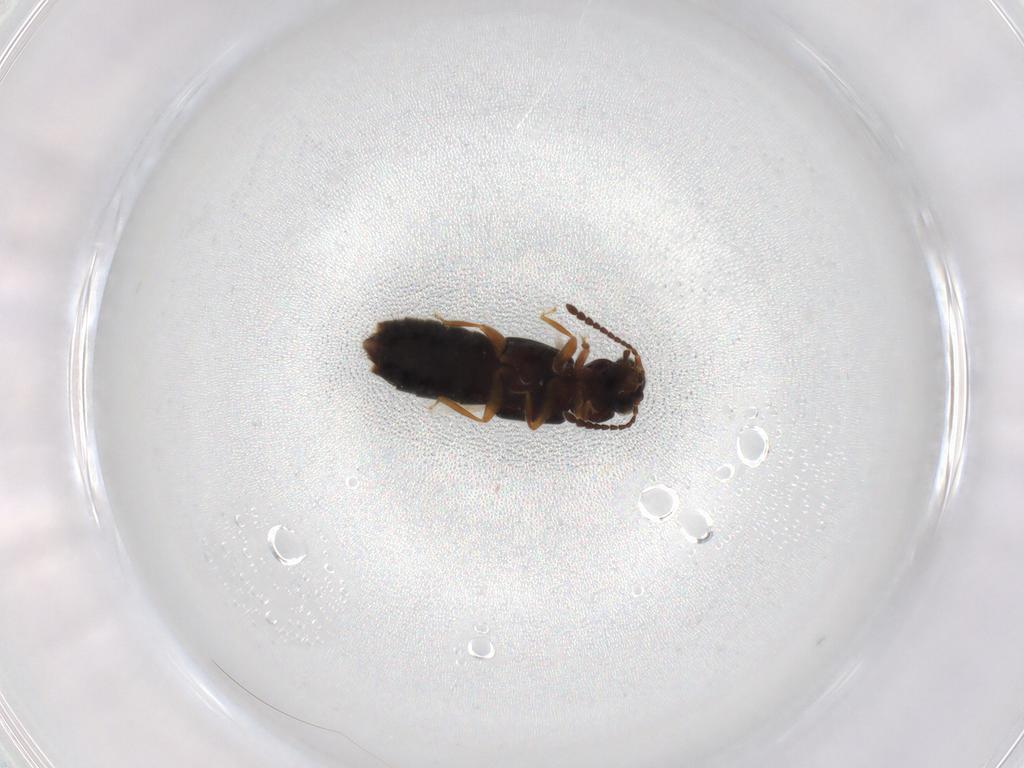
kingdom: Animalia
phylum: Arthropoda
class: Insecta
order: Coleoptera
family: Staphylinidae
